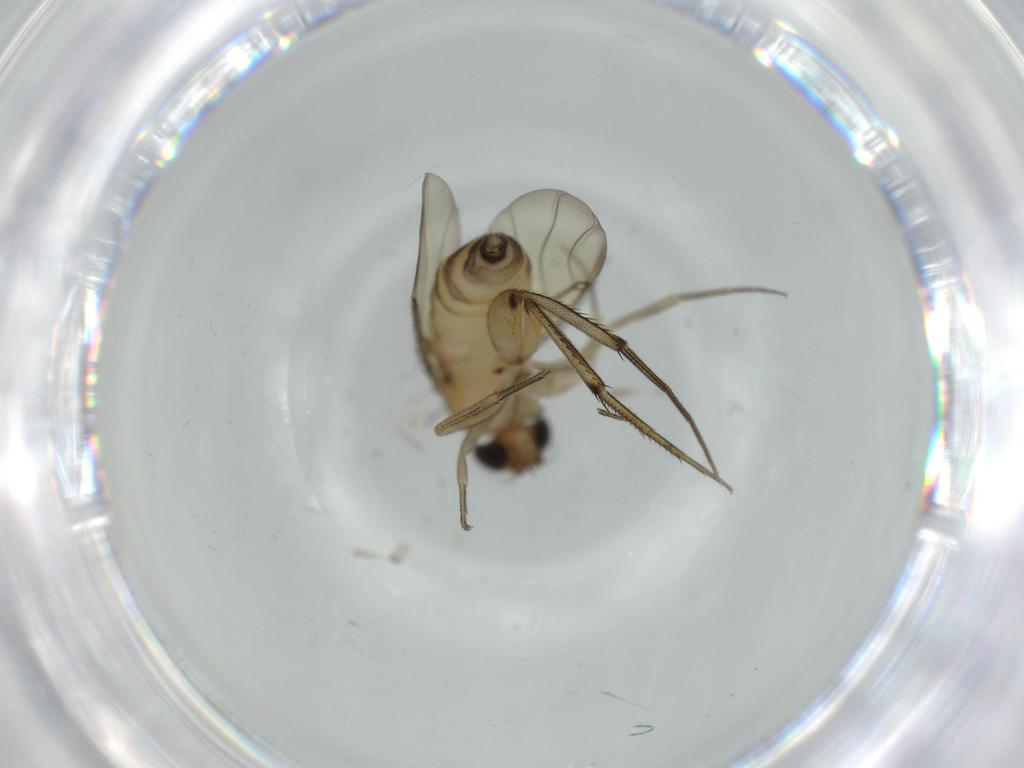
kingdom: Animalia
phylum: Arthropoda
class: Insecta
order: Diptera
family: Phoridae
